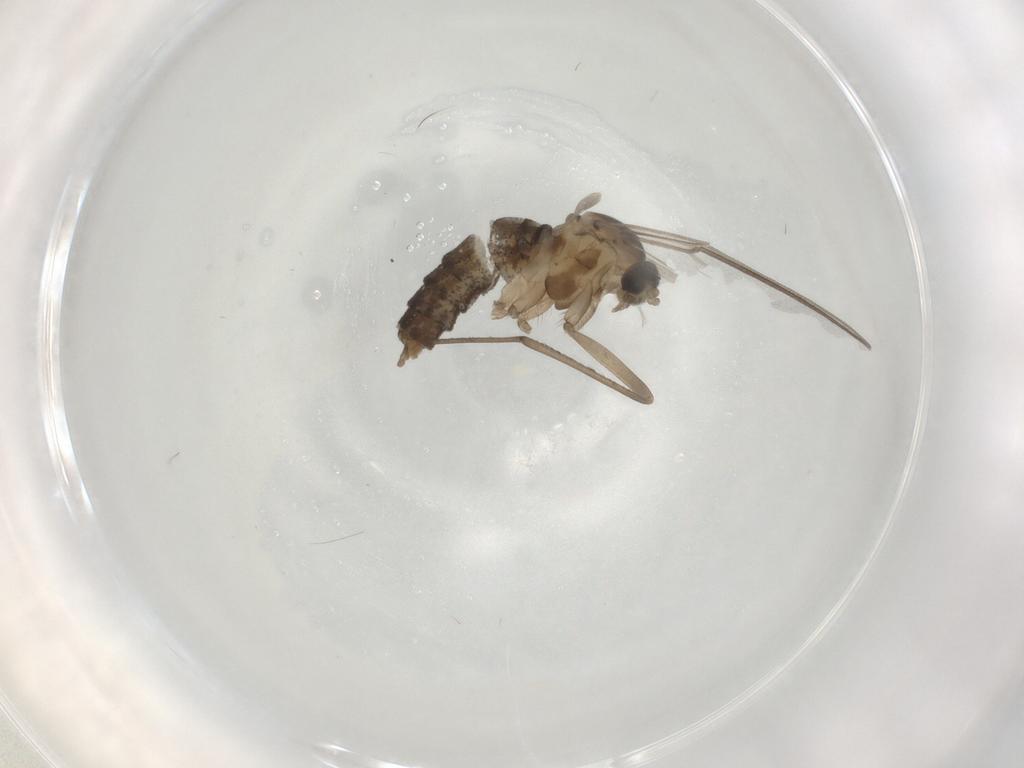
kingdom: Animalia
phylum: Arthropoda
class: Insecta
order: Diptera
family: Cecidomyiidae
